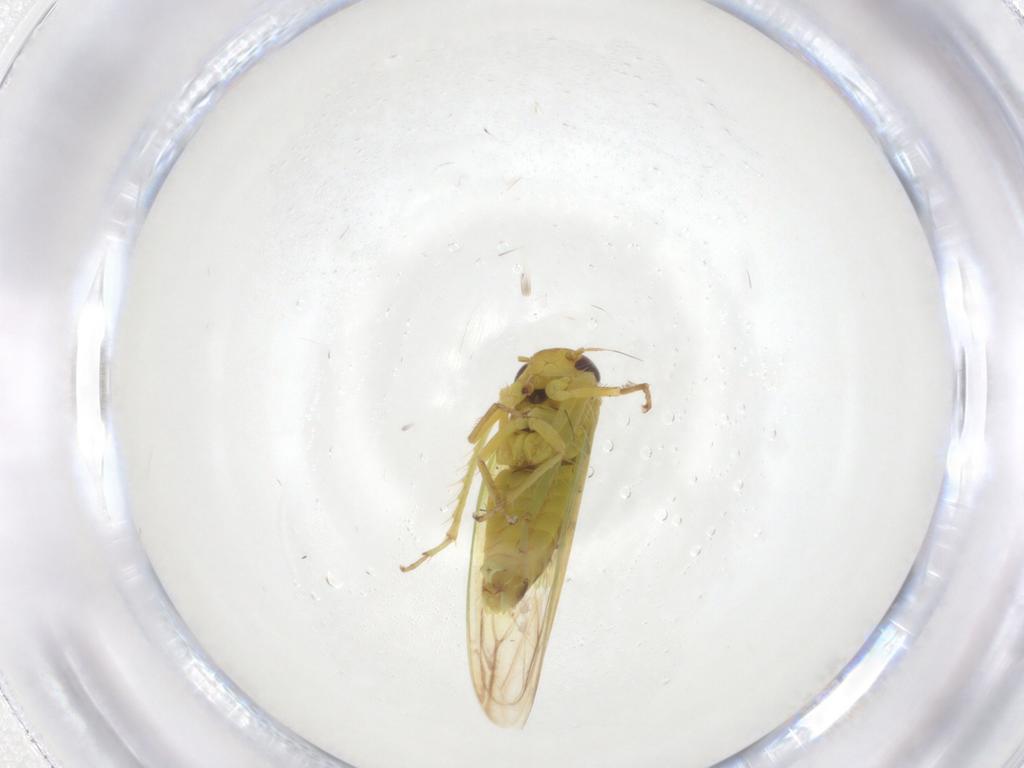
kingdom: Animalia
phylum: Arthropoda
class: Insecta
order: Hemiptera
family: Cicadellidae
